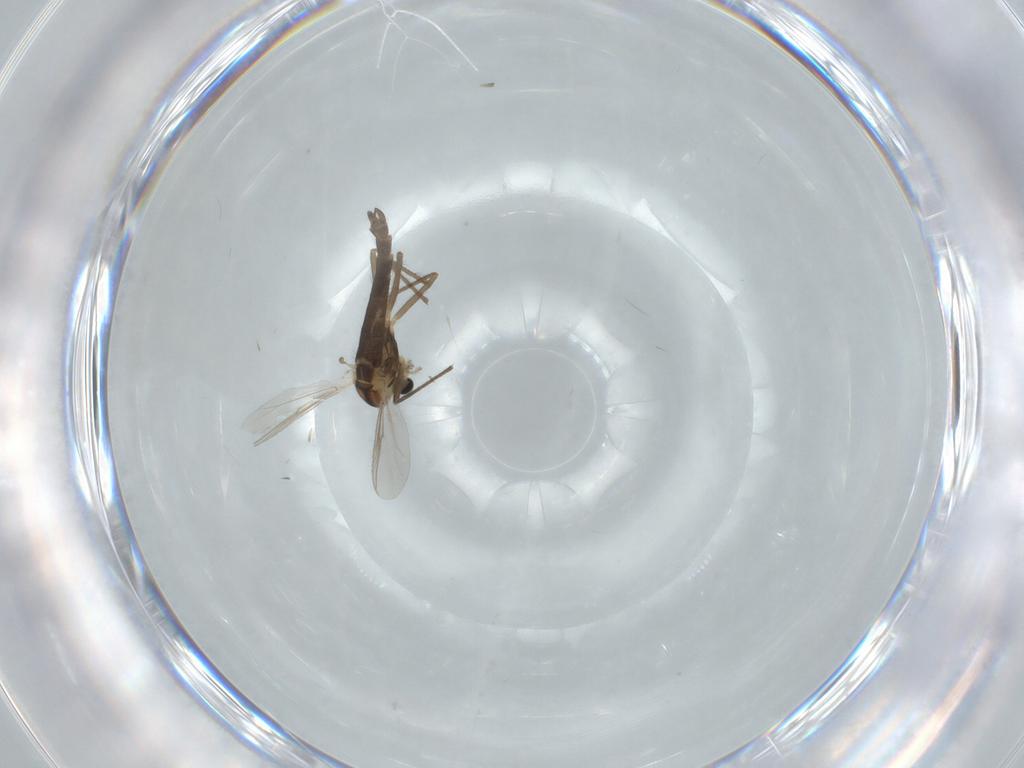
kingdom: Animalia
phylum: Arthropoda
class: Insecta
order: Diptera
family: Chironomidae
